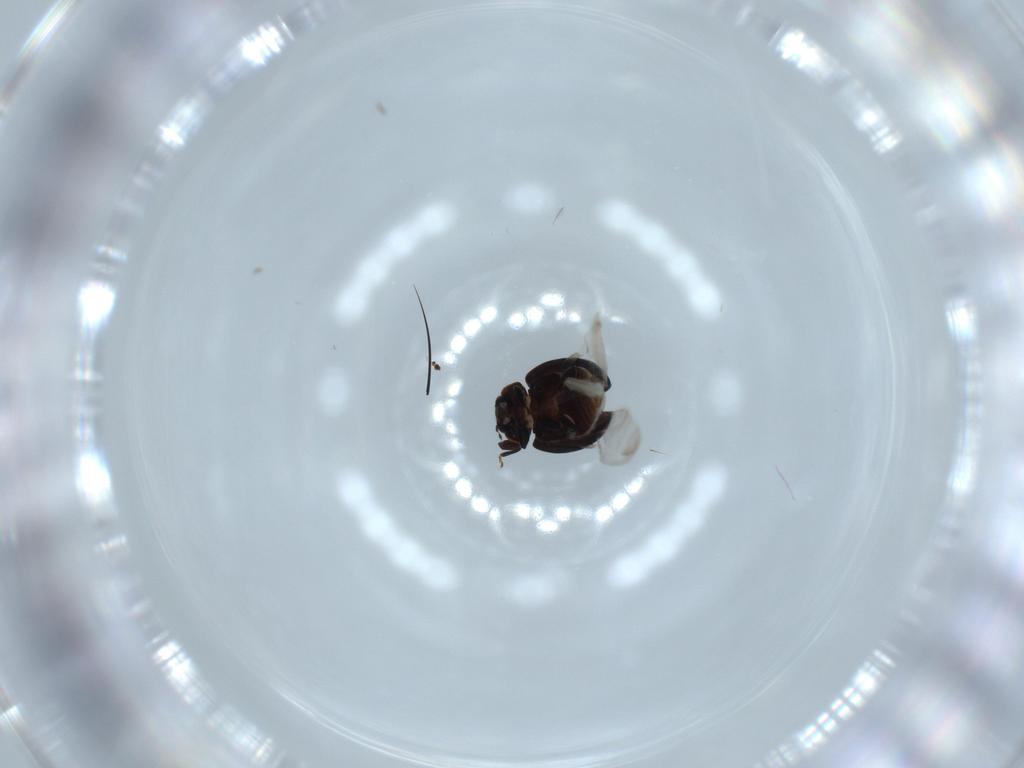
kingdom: Animalia
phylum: Arthropoda
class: Insecta
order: Coleoptera
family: Coccinellidae
